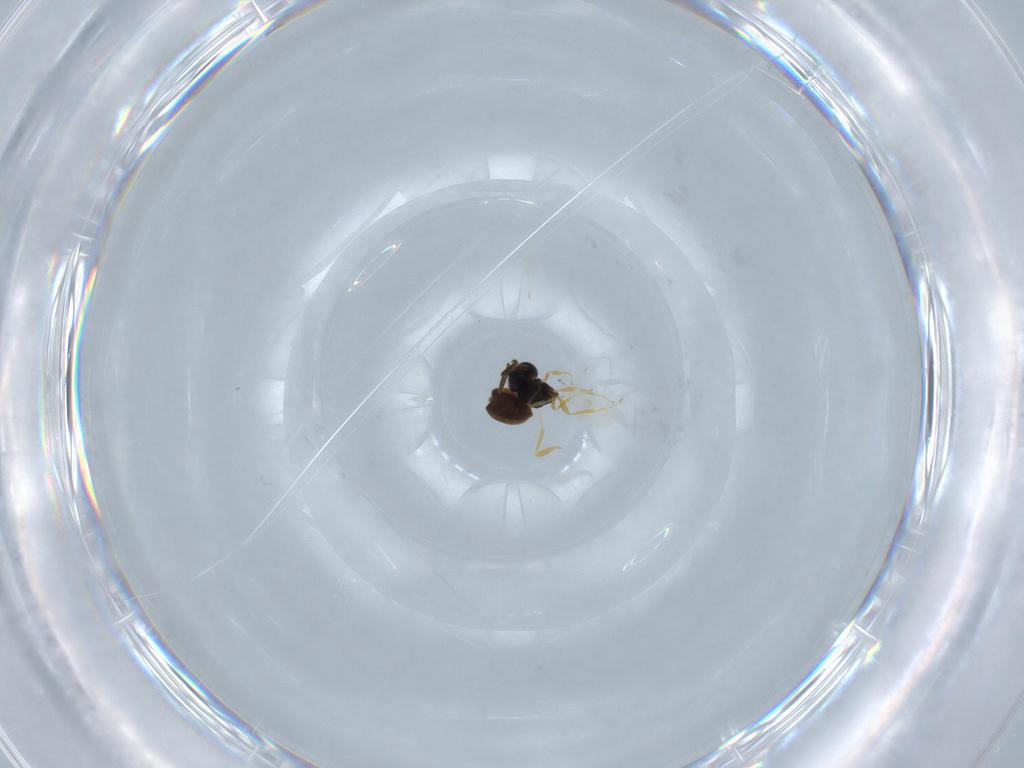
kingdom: Animalia
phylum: Arthropoda
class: Insecta
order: Hymenoptera
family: Scelionidae
